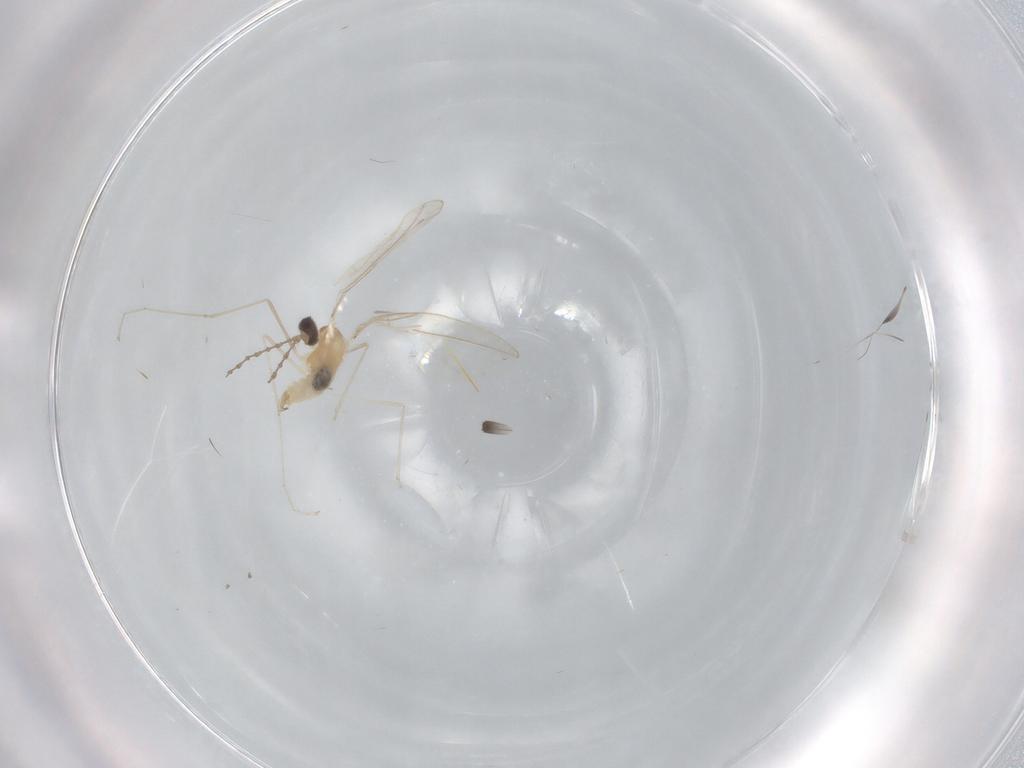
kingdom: Animalia
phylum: Arthropoda
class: Insecta
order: Diptera
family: Cecidomyiidae
